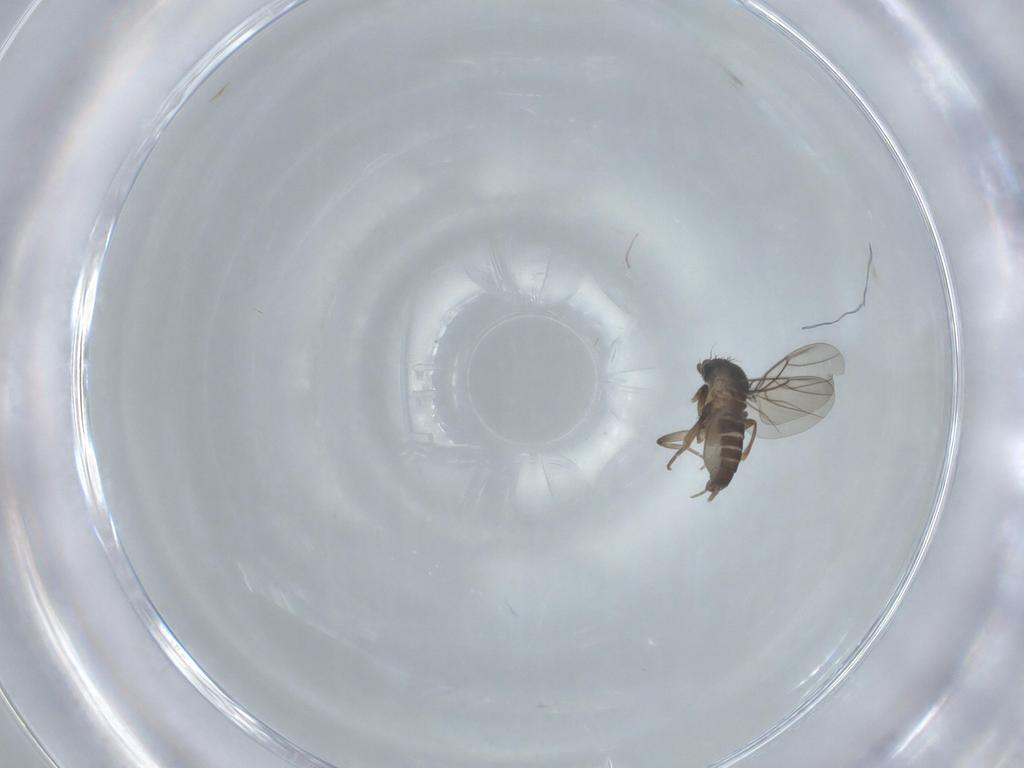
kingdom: Animalia
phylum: Arthropoda
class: Insecta
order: Diptera
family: Phoridae
